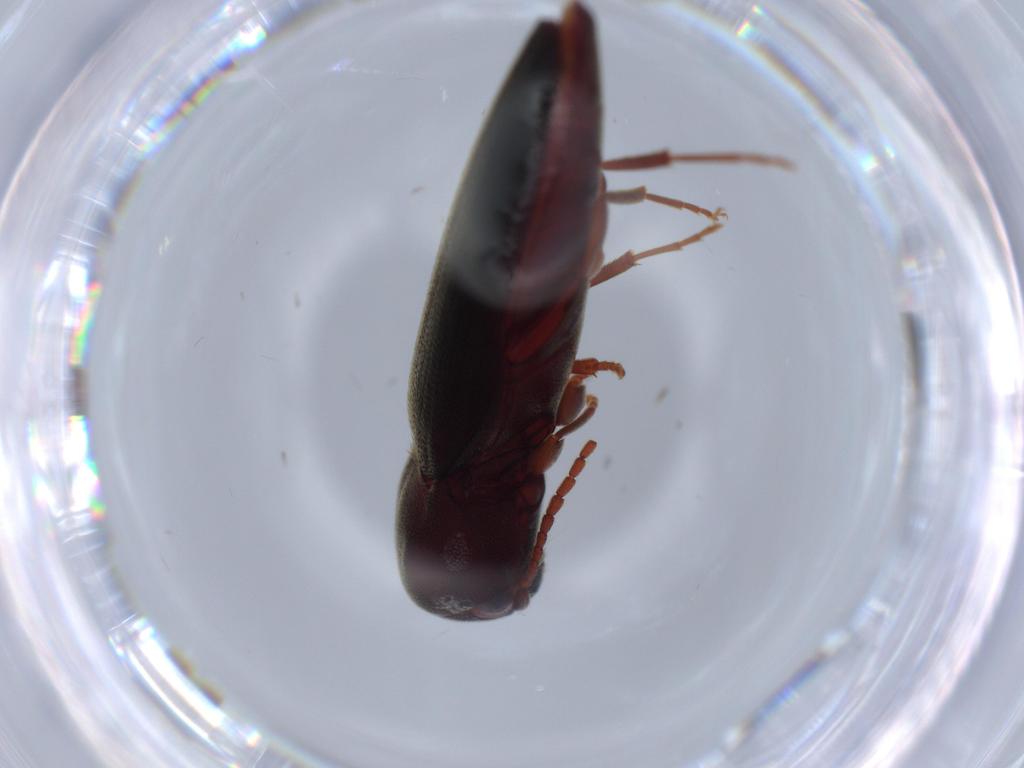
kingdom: Animalia
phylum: Arthropoda
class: Insecta
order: Coleoptera
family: Eucnemidae
